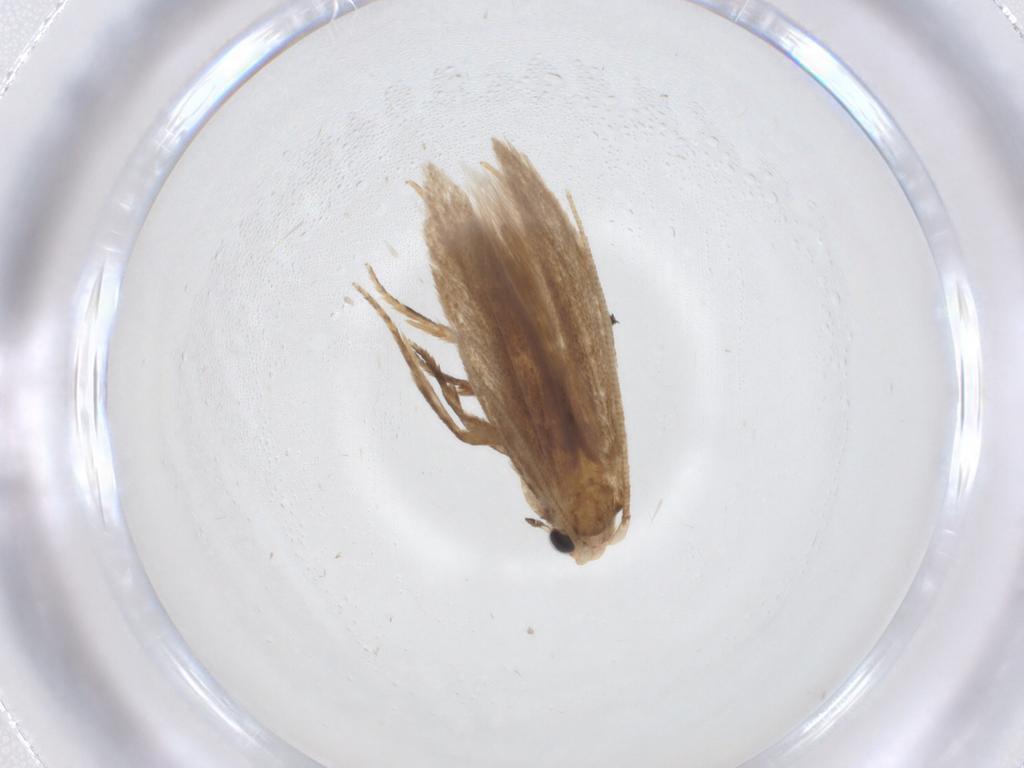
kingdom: Animalia
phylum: Arthropoda
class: Insecta
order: Lepidoptera
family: Tineidae
